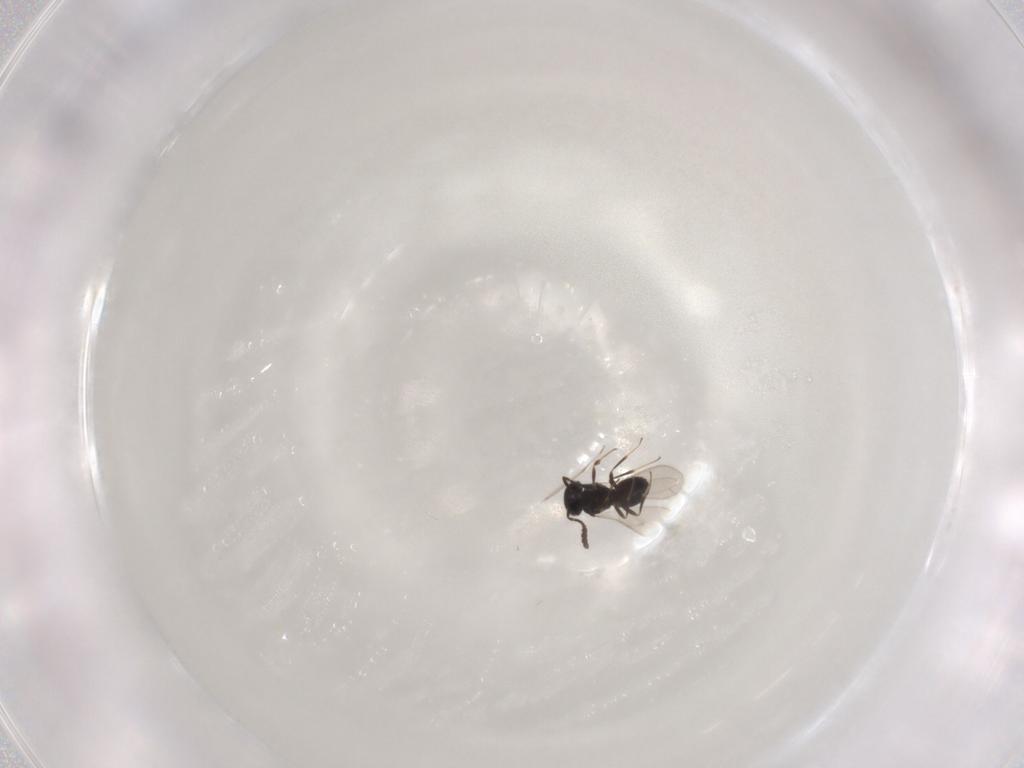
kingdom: Animalia
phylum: Arthropoda
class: Insecta
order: Hymenoptera
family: Scelionidae
